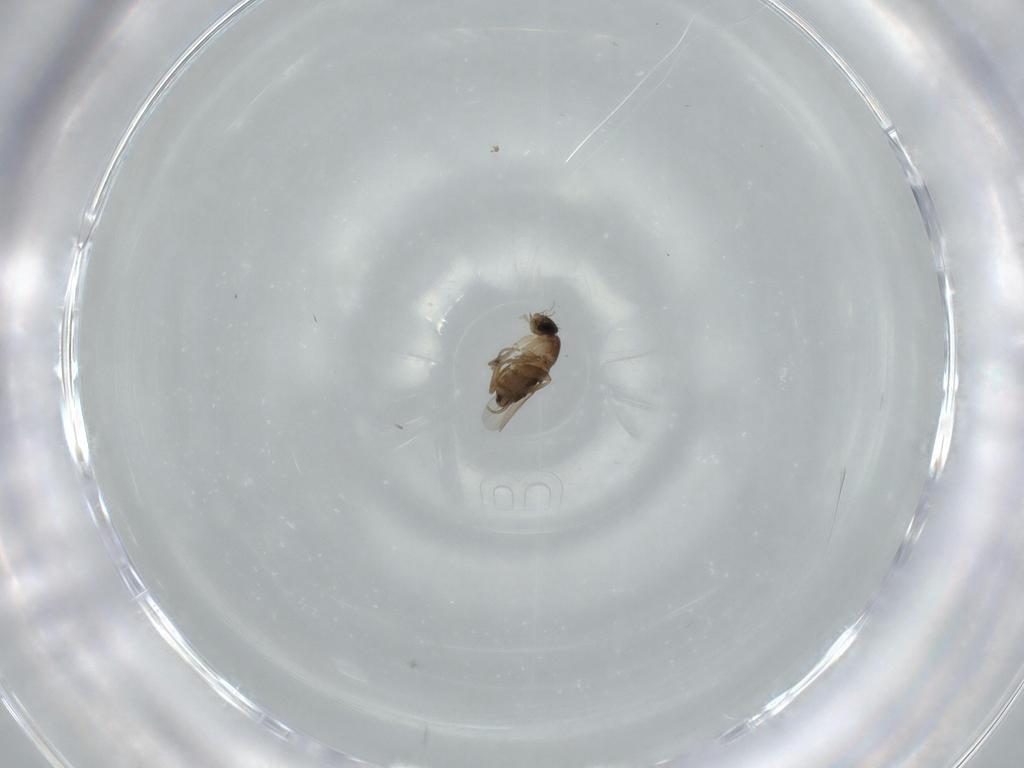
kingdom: Animalia
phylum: Arthropoda
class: Insecta
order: Diptera
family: Phoridae
